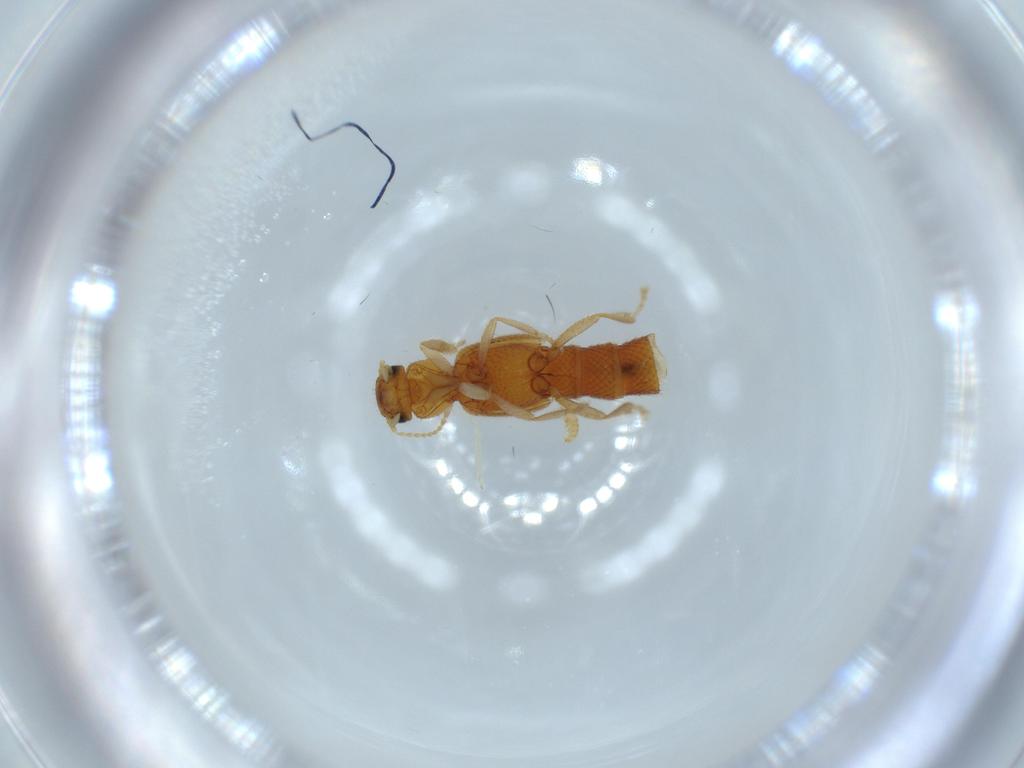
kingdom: Animalia
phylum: Arthropoda
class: Insecta
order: Coleoptera
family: Staphylinidae
